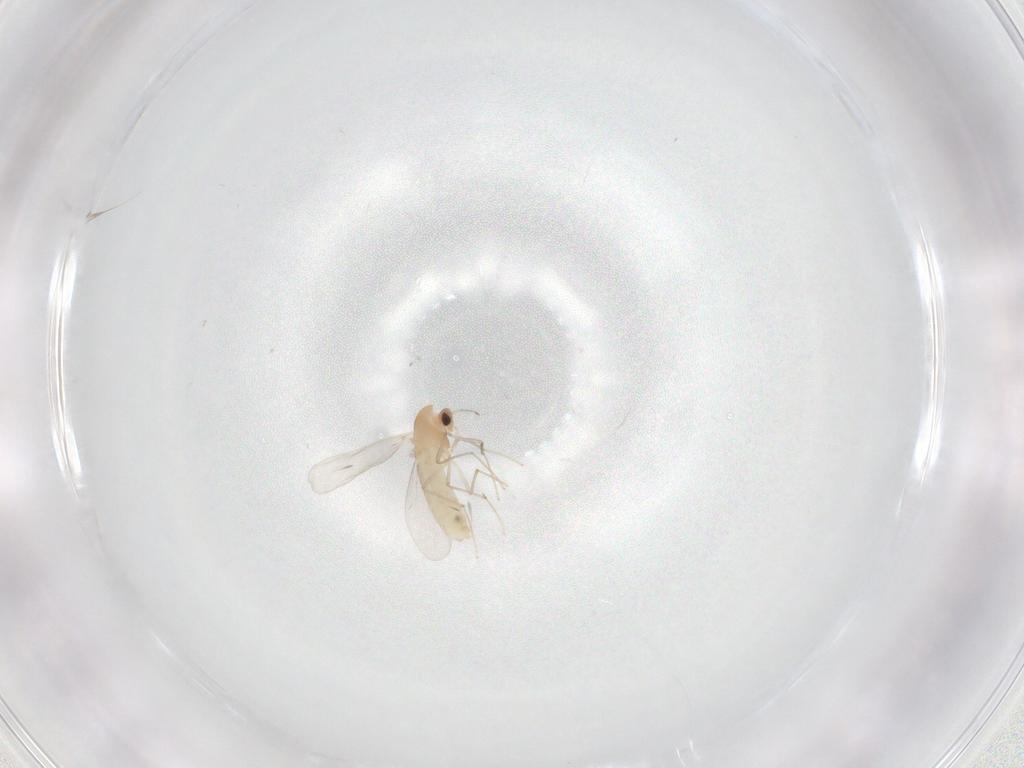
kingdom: Animalia
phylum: Arthropoda
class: Insecta
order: Diptera
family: Chironomidae
